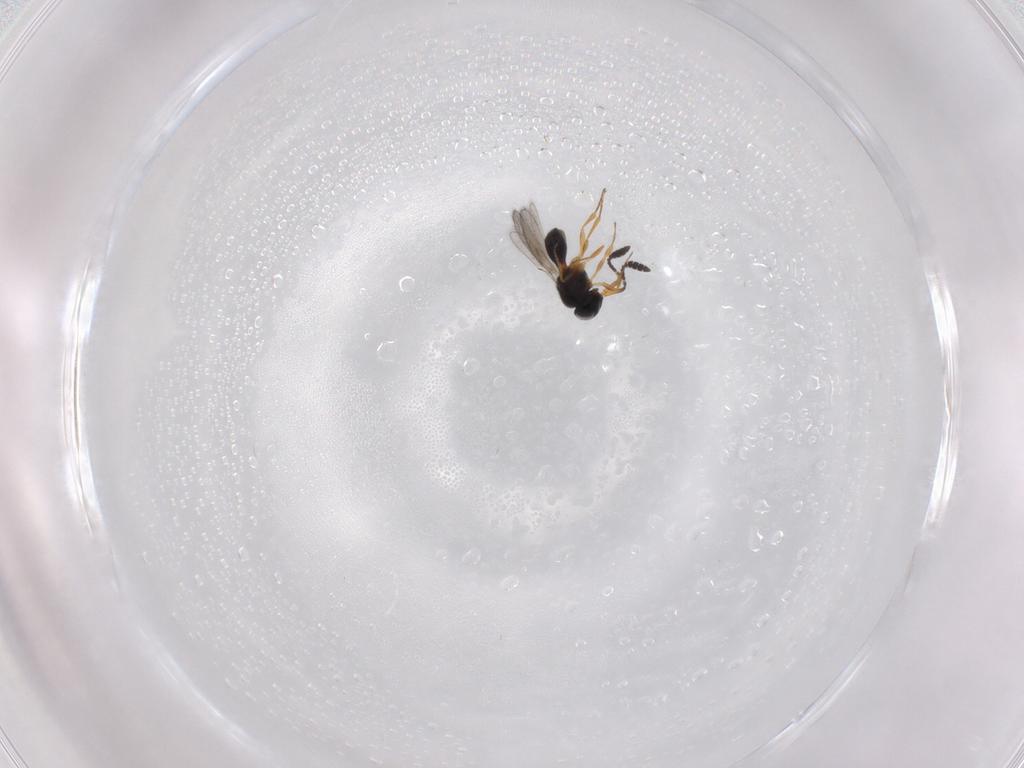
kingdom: Animalia
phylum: Arthropoda
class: Insecta
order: Hymenoptera
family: Scelionidae
